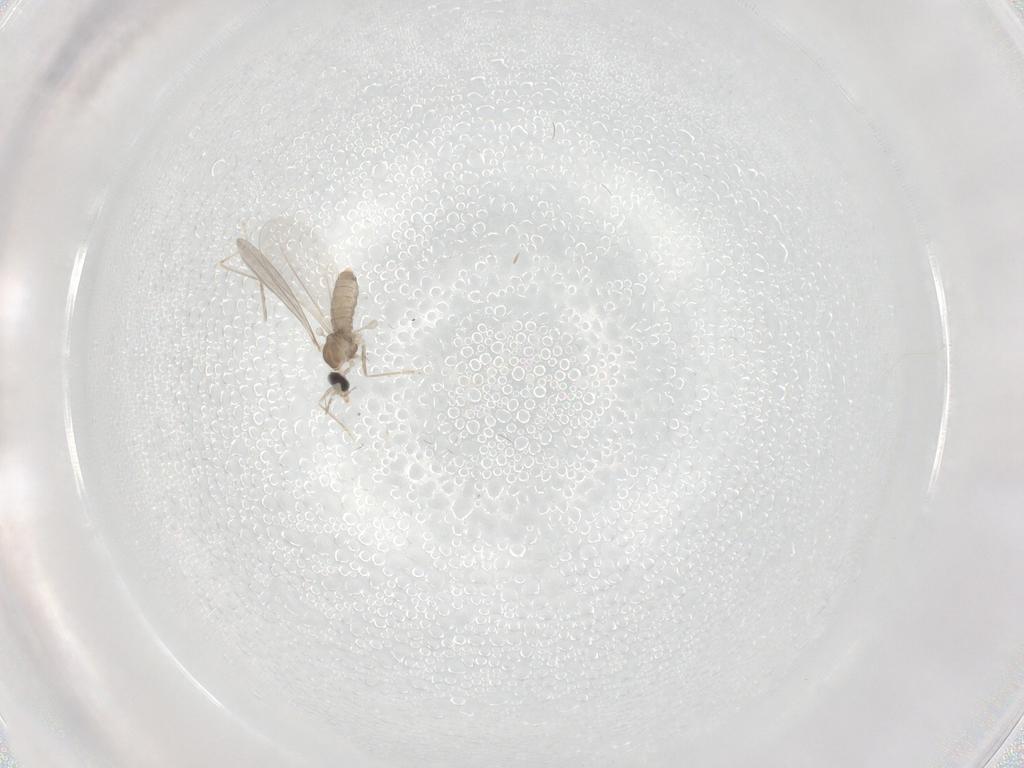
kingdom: Animalia
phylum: Arthropoda
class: Insecta
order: Diptera
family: Cecidomyiidae
